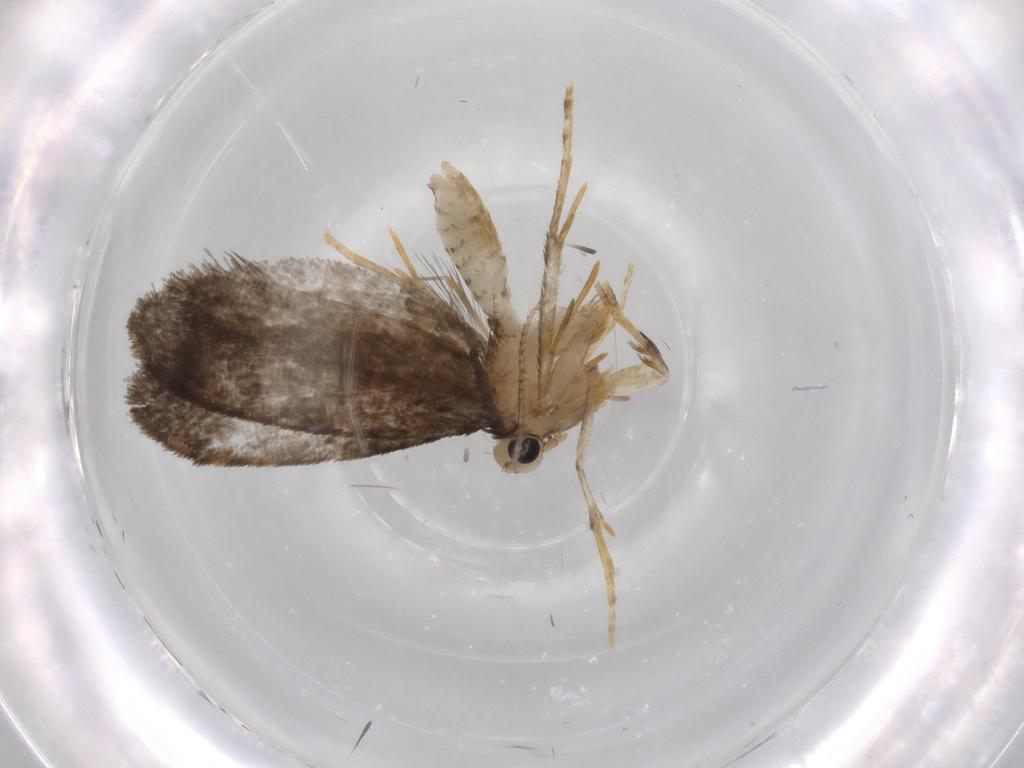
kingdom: Animalia
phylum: Arthropoda
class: Insecta
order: Lepidoptera
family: Psychidae
